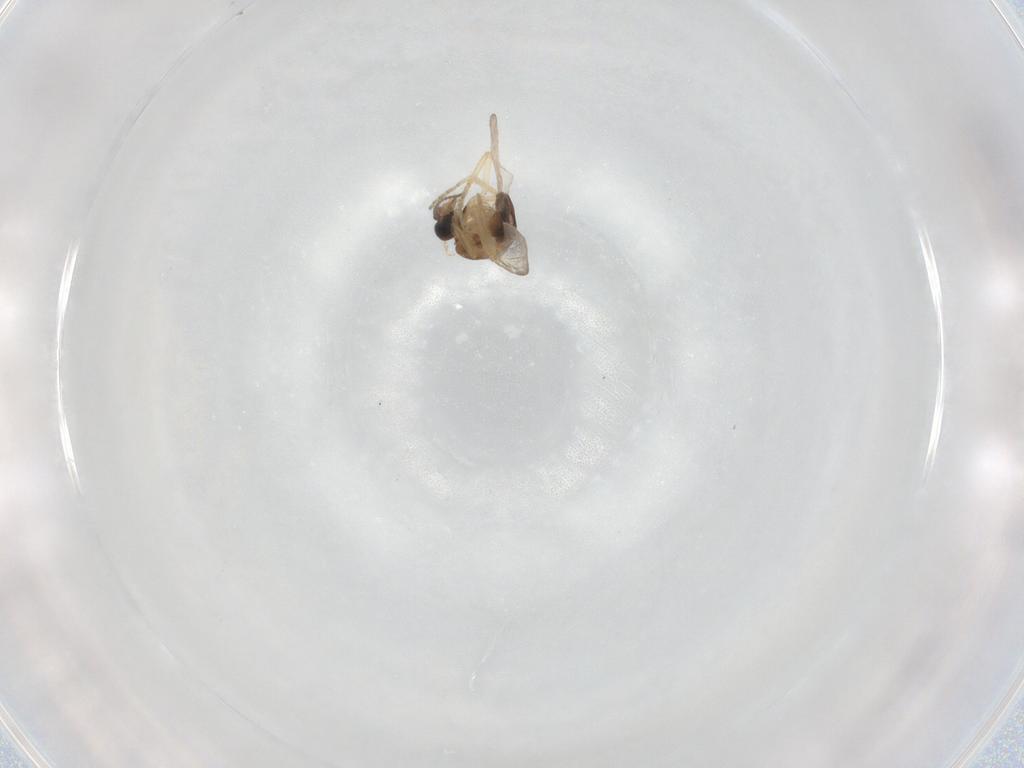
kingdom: Animalia
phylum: Arthropoda
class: Insecta
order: Diptera
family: Ceratopogonidae
